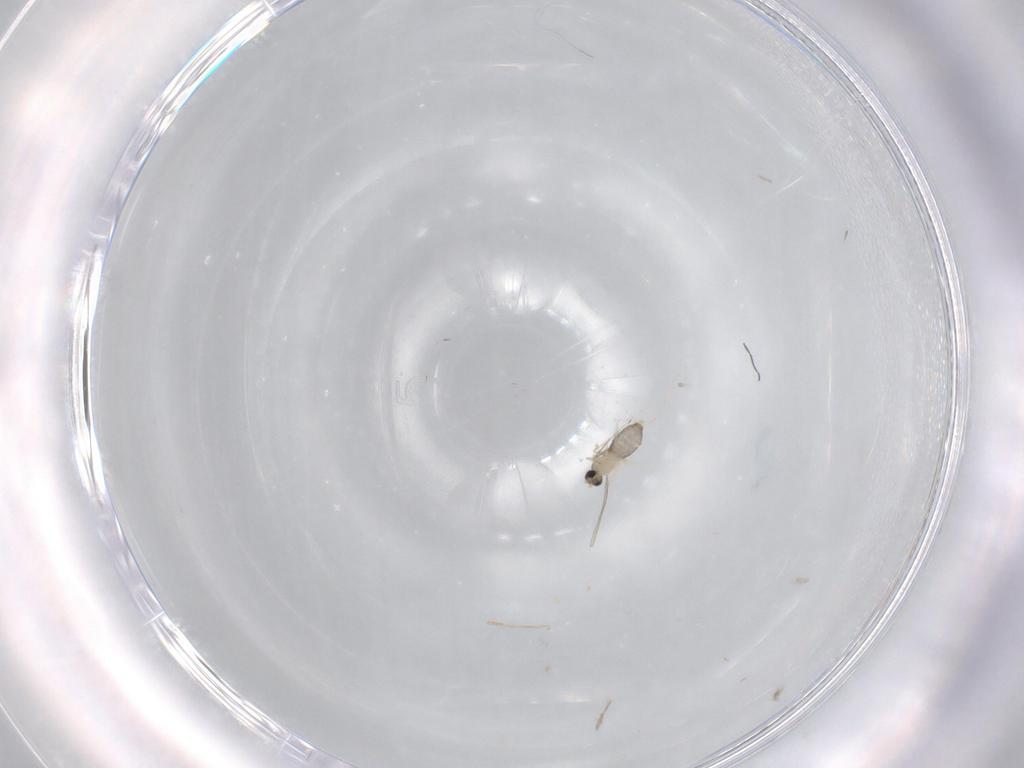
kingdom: Animalia
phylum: Arthropoda
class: Insecta
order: Diptera
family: Cecidomyiidae
